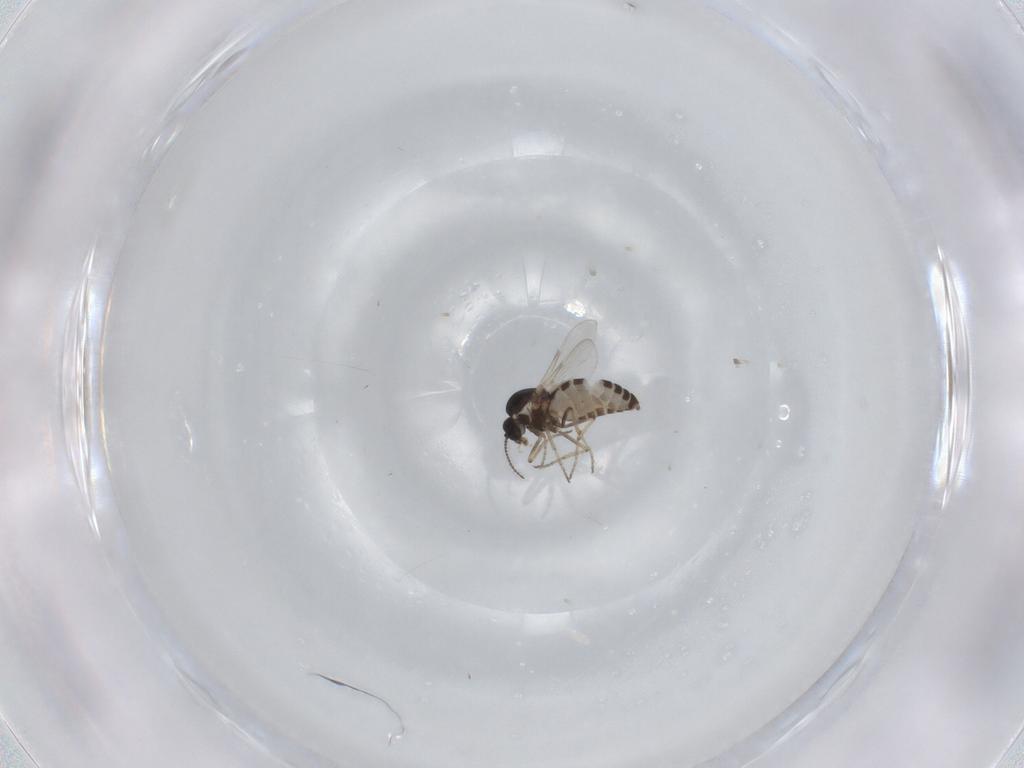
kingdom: Animalia
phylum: Arthropoda
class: Insecta
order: Diptera
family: Ceratopogonidae
